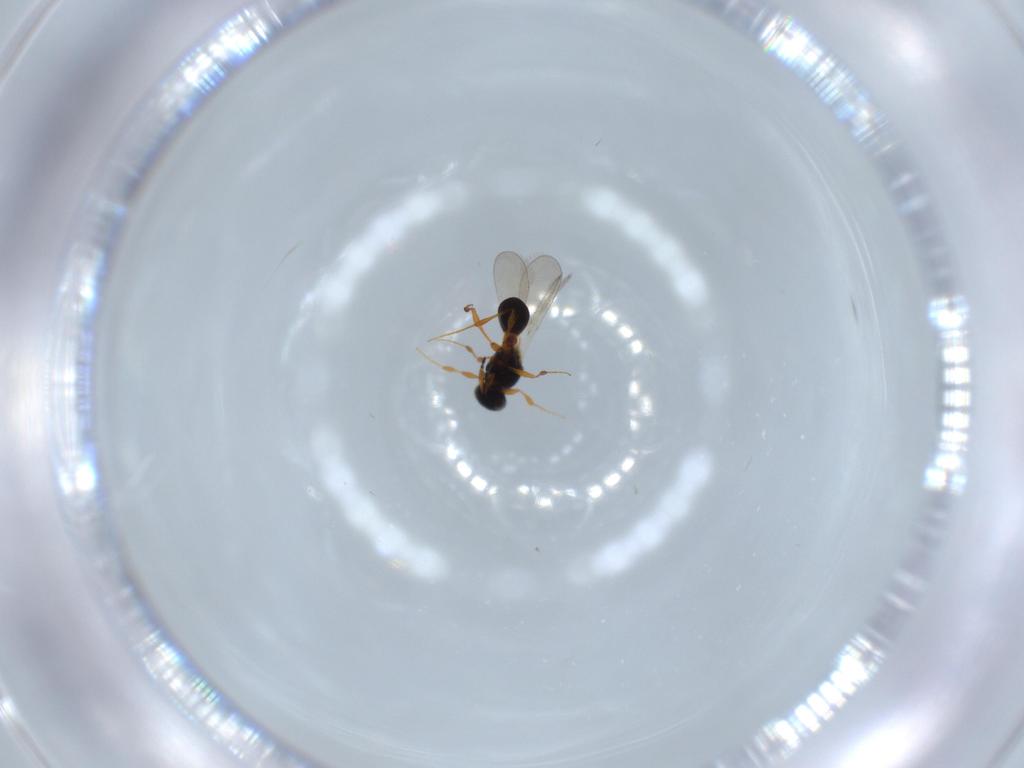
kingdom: Animalia
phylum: Arthropoda
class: Insecta
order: Hymenoptera
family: Platygastridae
